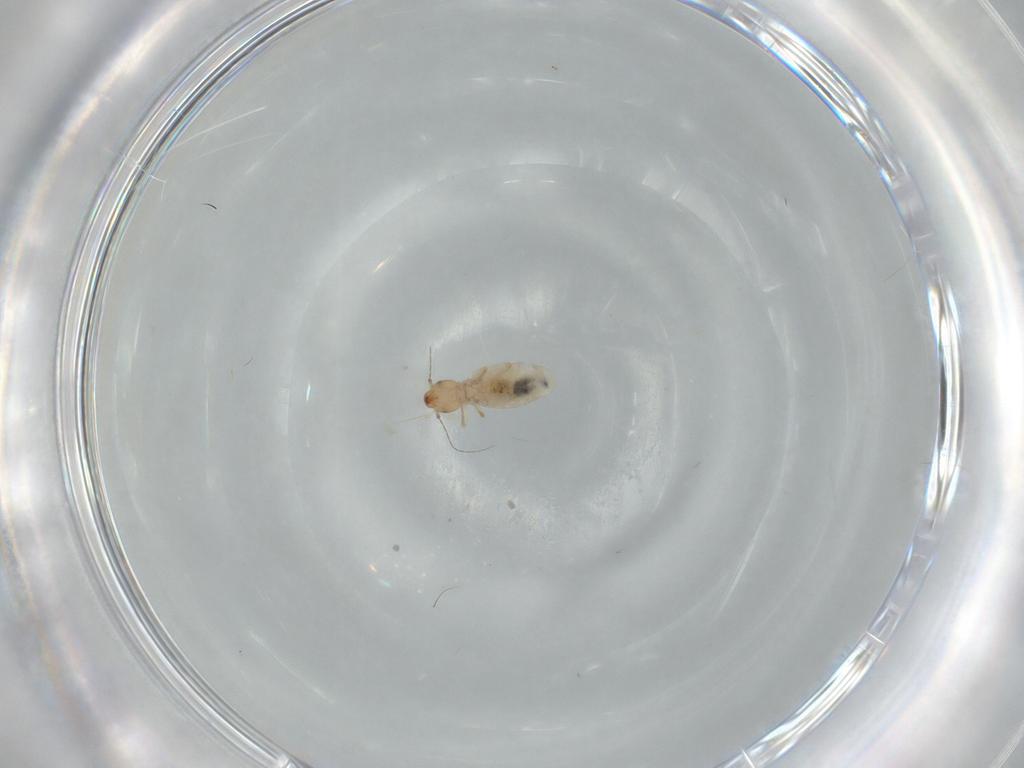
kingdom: Animalia
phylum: Arthropoda
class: Insecta
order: Psocodea
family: Liposcelididae
